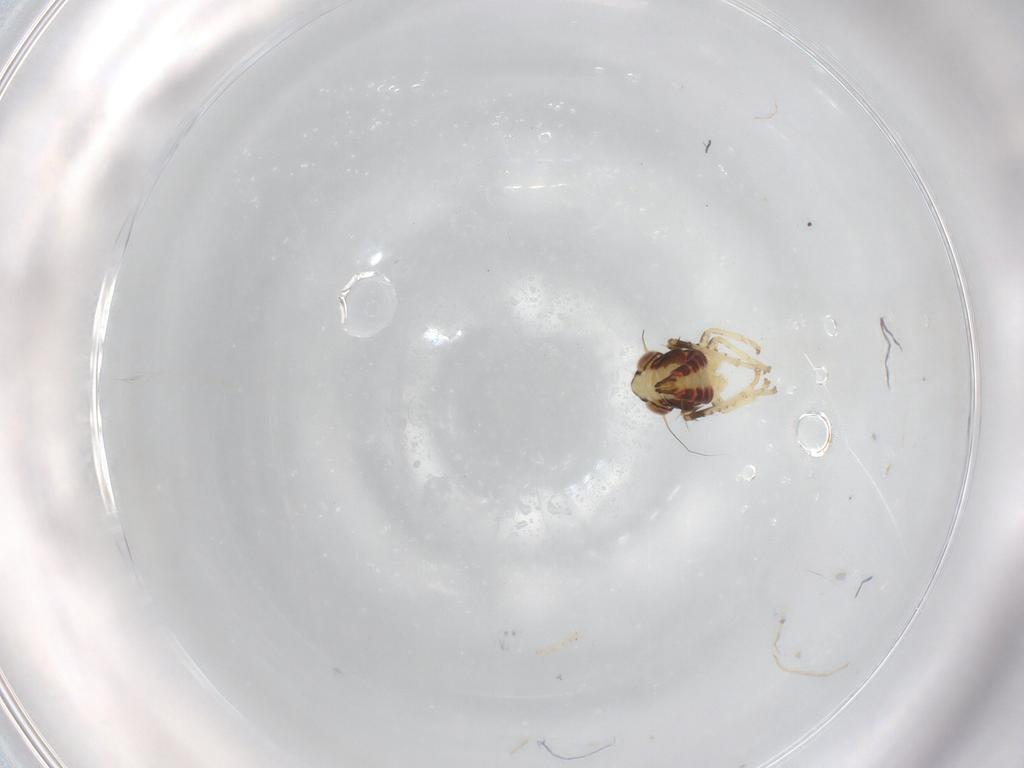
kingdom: Animalia
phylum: Arthropoda
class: Insecta
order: Hemiptera
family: Cicadellidae
